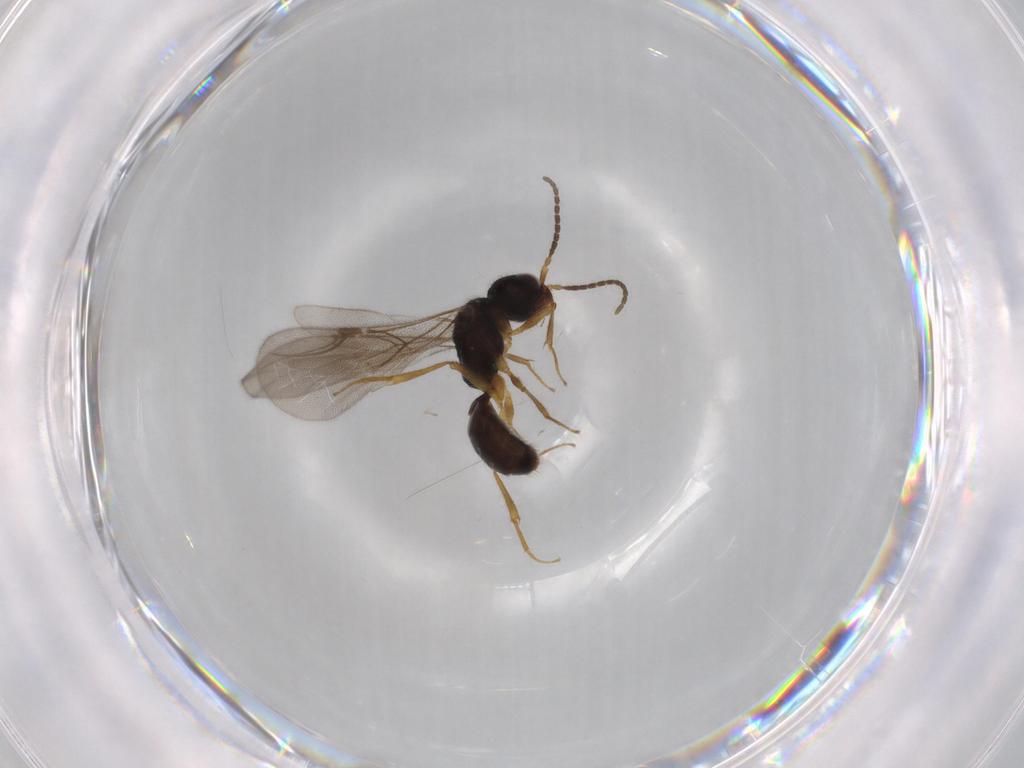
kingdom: Animalia
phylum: Arthropoda
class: Insecta
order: Hymenoptera
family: Bethylidae
